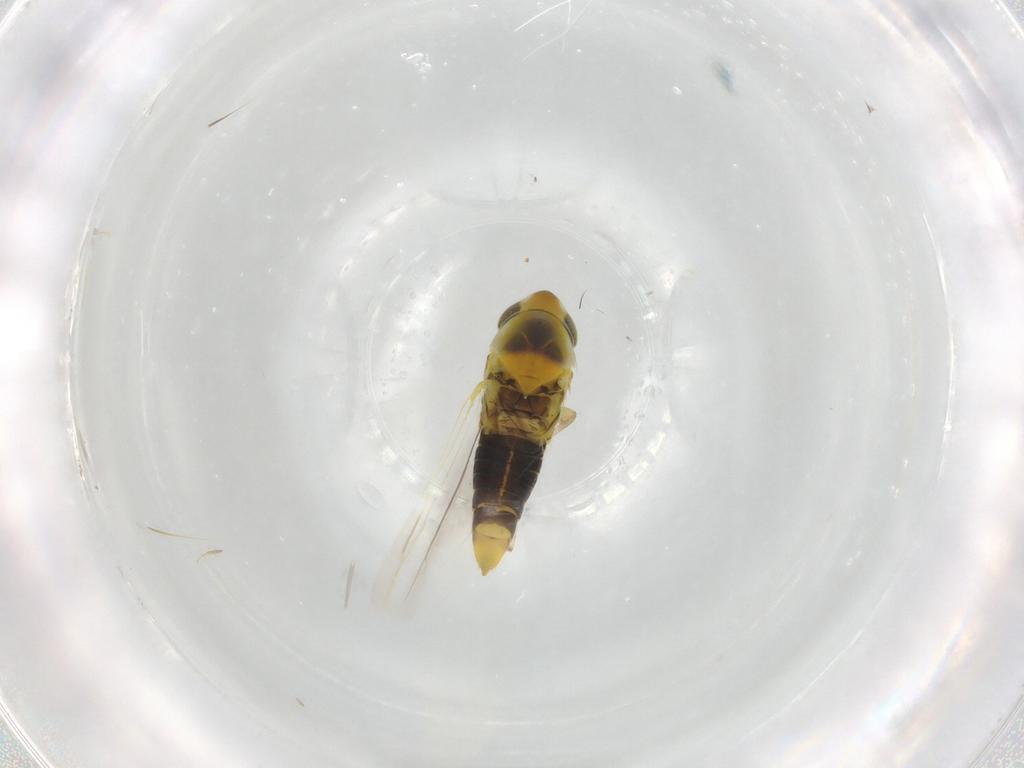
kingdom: Animalia
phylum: Arthropoda
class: Insecta
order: Hemiptera
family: Cicadellidae
